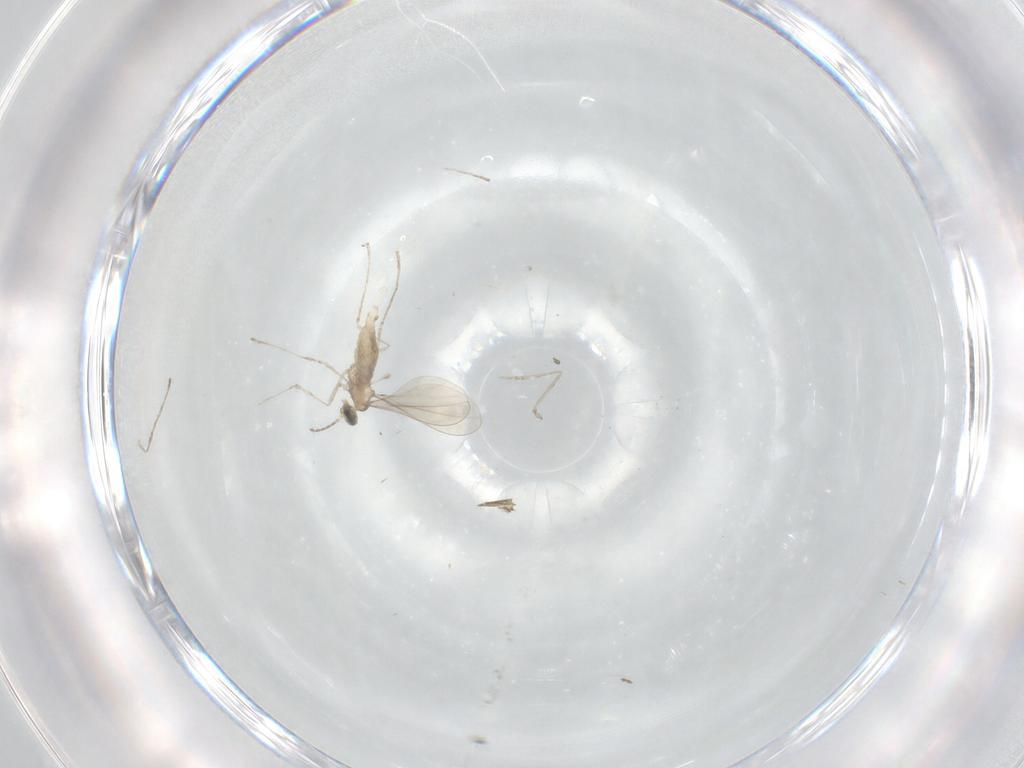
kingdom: Animalia
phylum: Arthropoda
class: Insecta
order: Diptera
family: Cecidomyiidae
